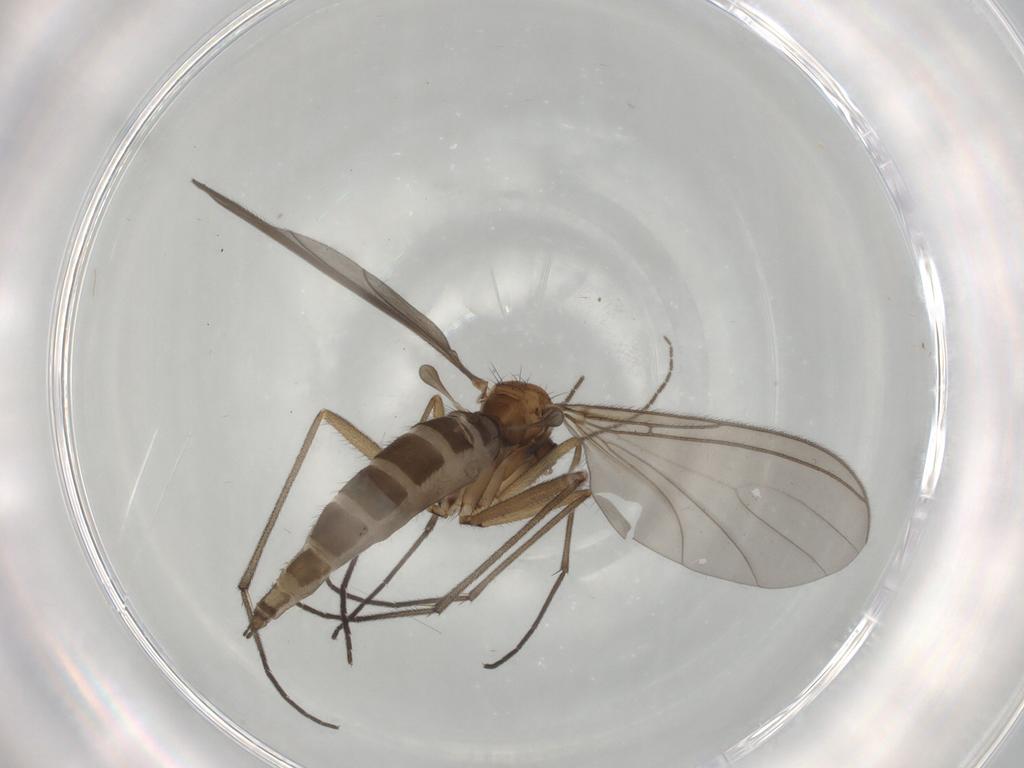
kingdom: Animalia
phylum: Arthropoda
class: Insecta
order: Diptera
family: Sphaeroceridae
